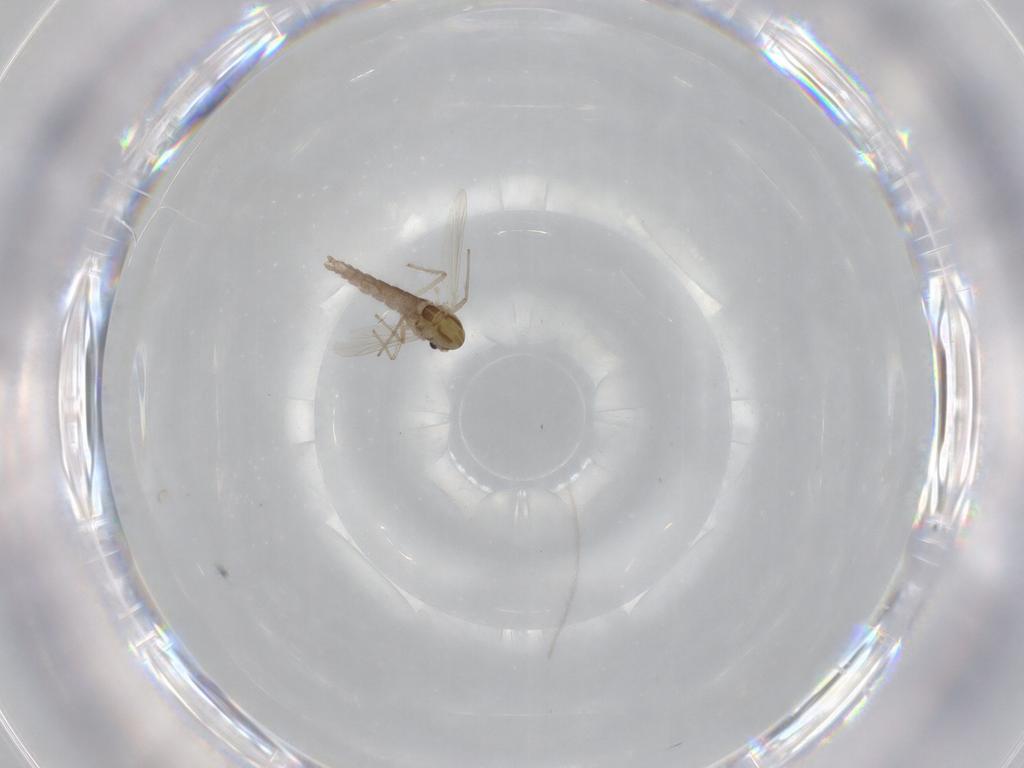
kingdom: Animalia
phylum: Arthropoda
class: Insecta
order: Diptera
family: Chironomidae
